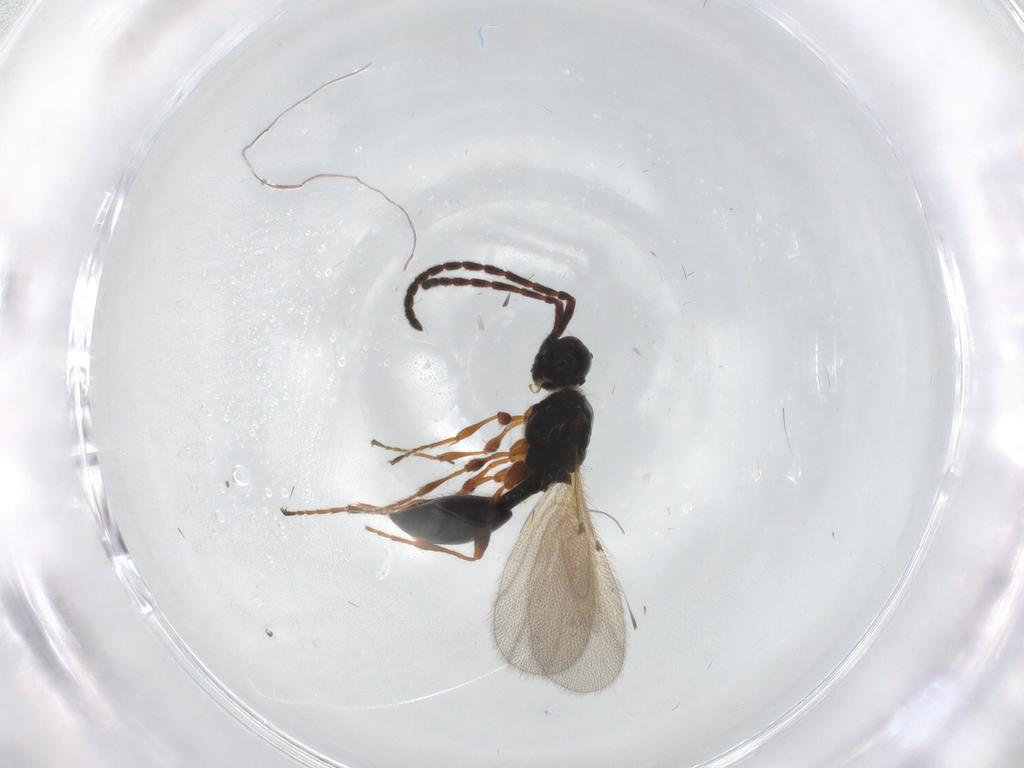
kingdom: Animalia
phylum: Arthropoda
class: Insecta
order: Hymenoptera
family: Diapriidae
